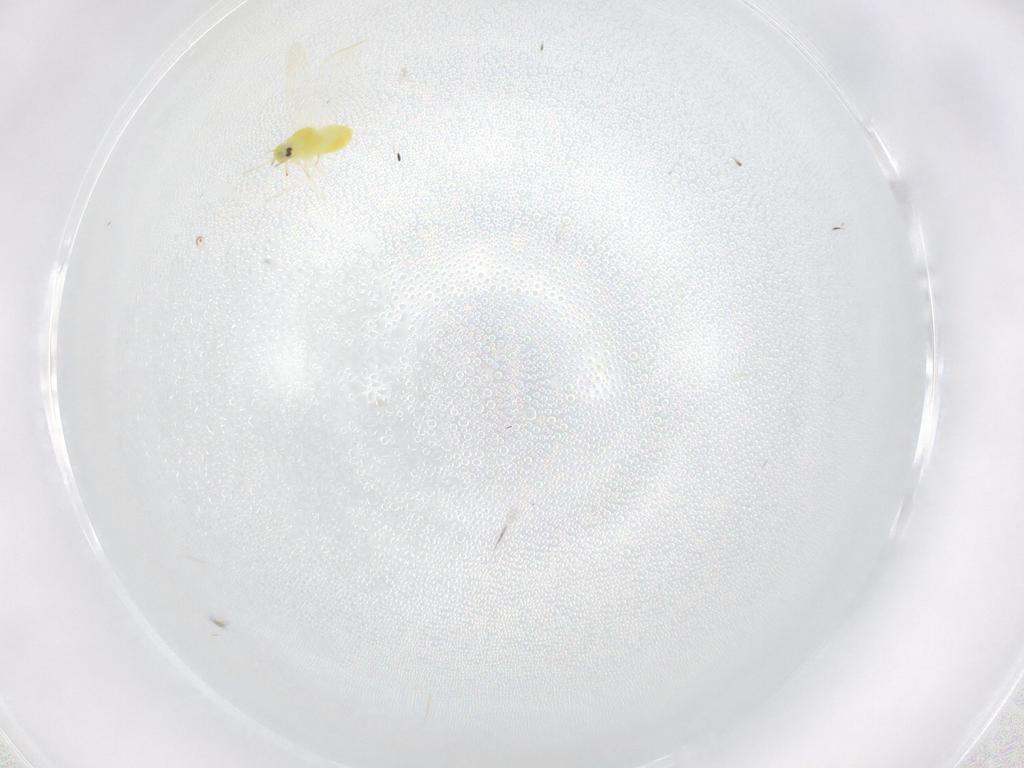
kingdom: Animalia
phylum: Arthropoda
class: Insecta
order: Hemiptera
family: Aleyrodidae
